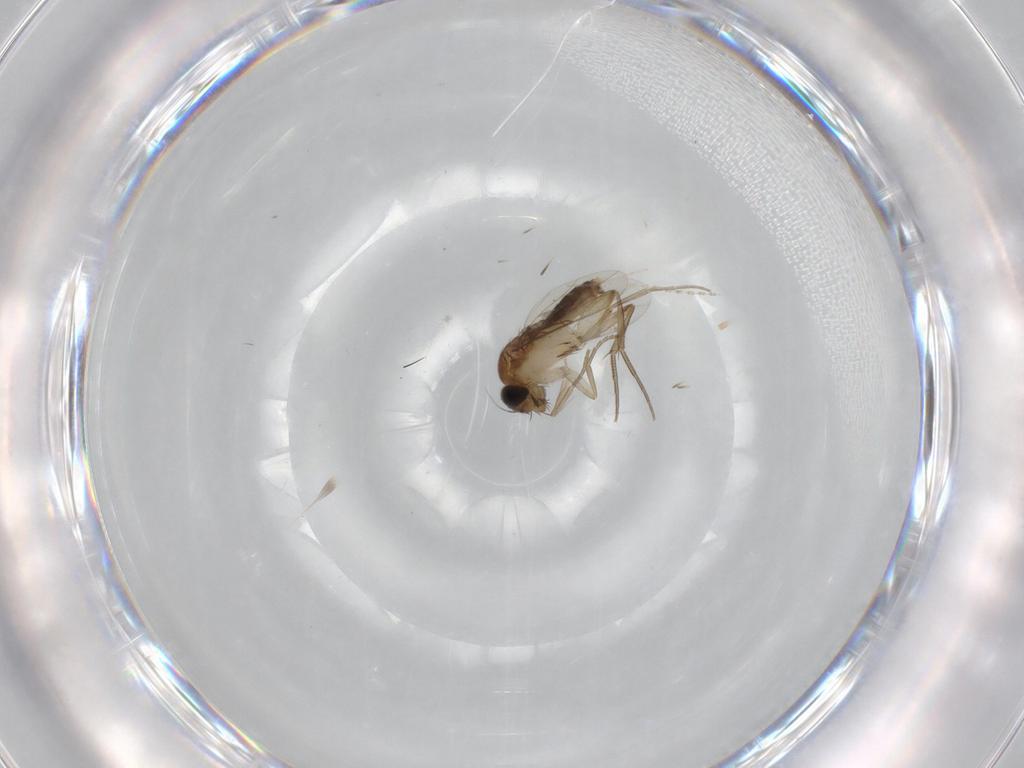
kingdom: Animalia
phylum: Arthropoda
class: Insecta
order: Diptera
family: Phoridae
